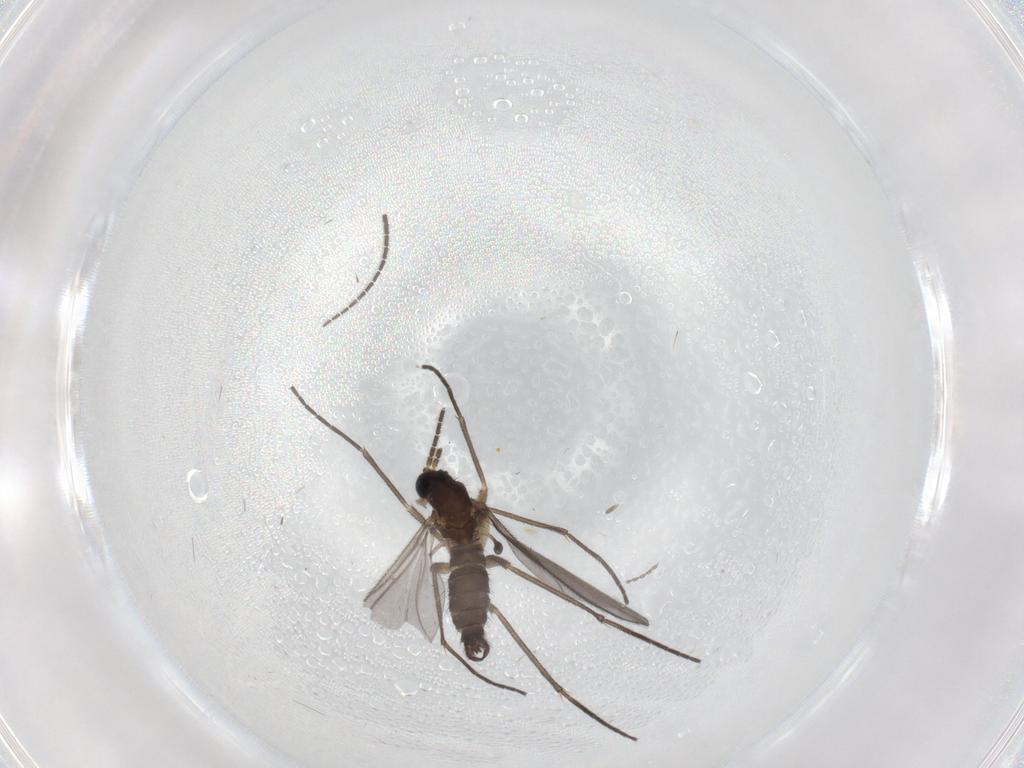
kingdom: Animalia
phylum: Arthropoda
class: Insecta
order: Diptera
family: Sciaridae
